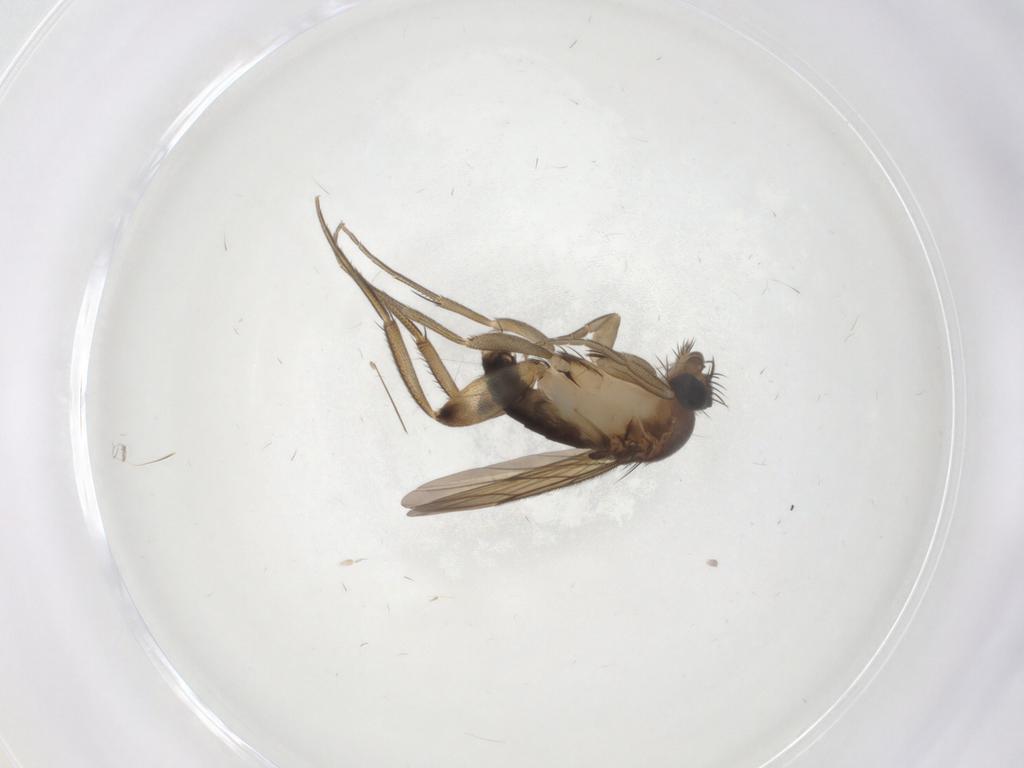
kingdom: Animalia
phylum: Arthropoda
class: Insecta
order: Diptera
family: Phoridae
